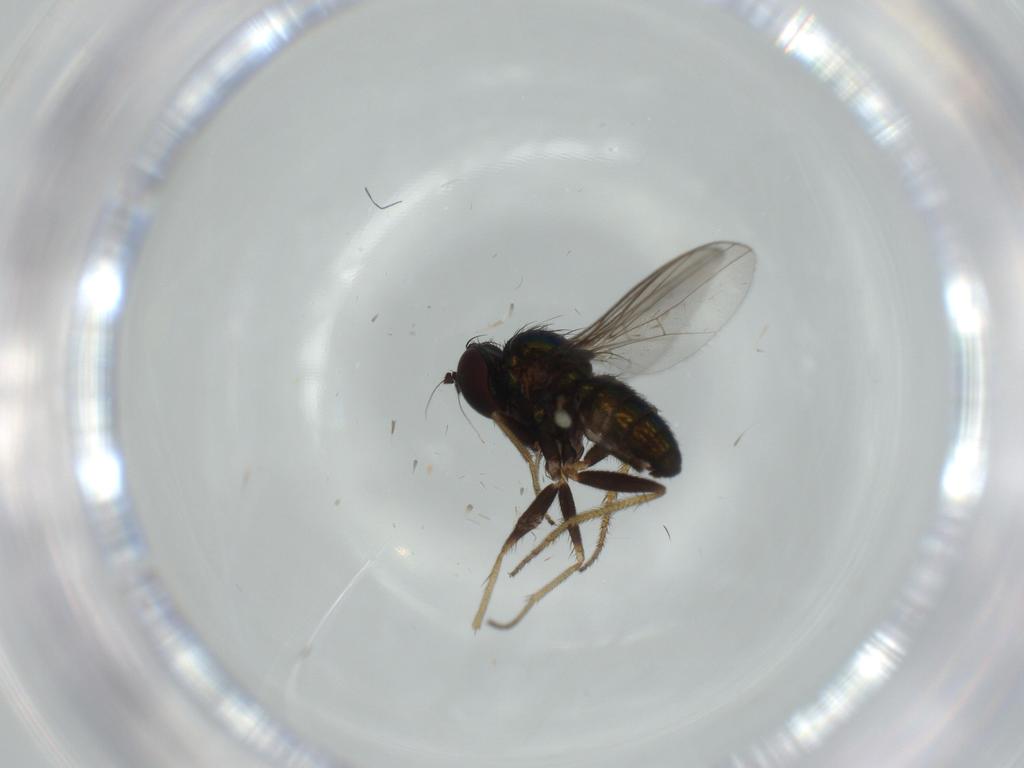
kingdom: Animalia
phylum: Arthropoda
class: Insecta
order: Diptera
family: Dolichopodidae
